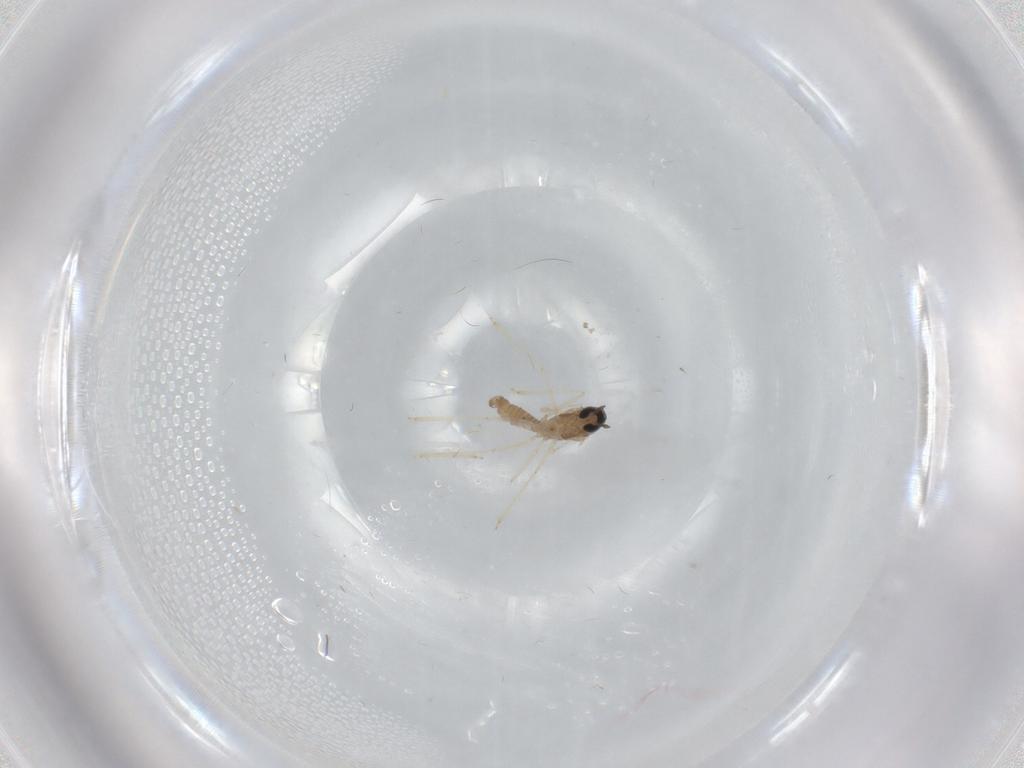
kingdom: Animalia
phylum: Arthropoda
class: Insecta
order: Diptera
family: Chironomidae
